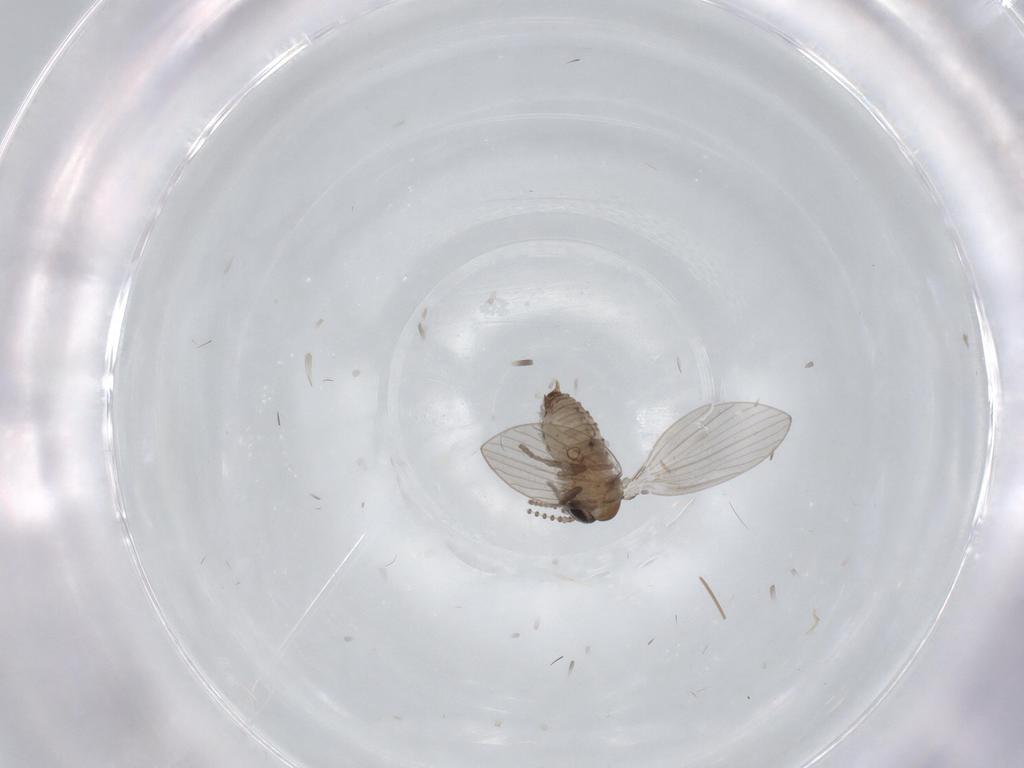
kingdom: Animalia
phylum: Arthropoda
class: Insecta
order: Diptera
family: Psychodidae
